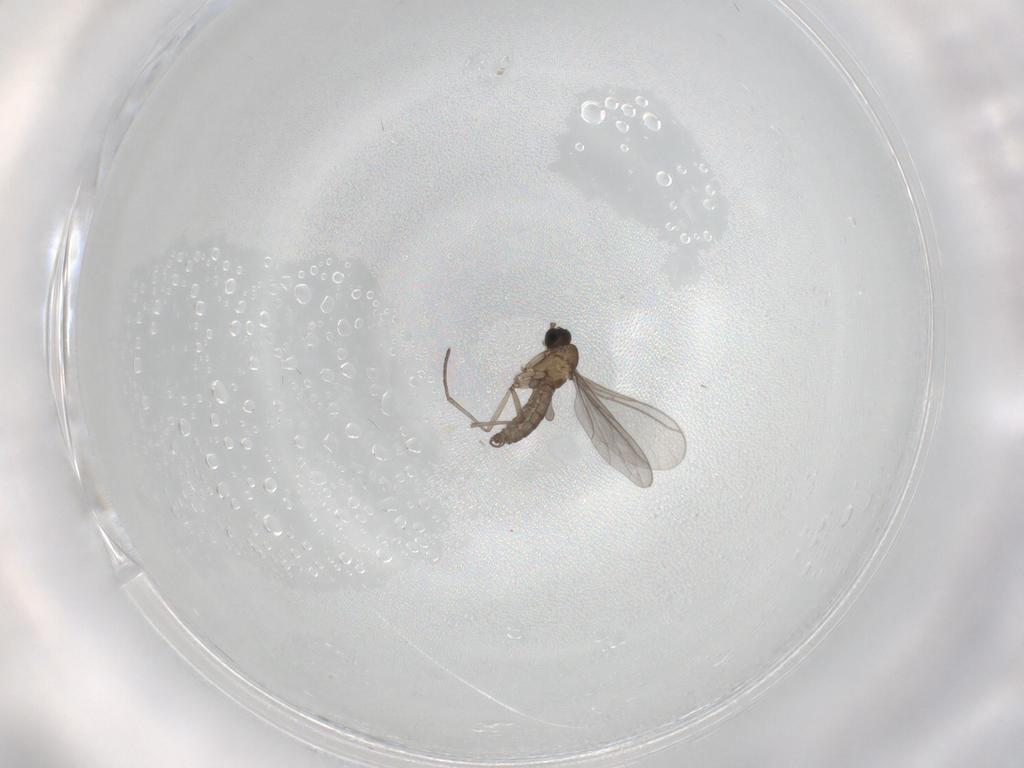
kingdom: Animalia
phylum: Arthropoda
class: Insecta
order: Diptera
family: Sciaridae
